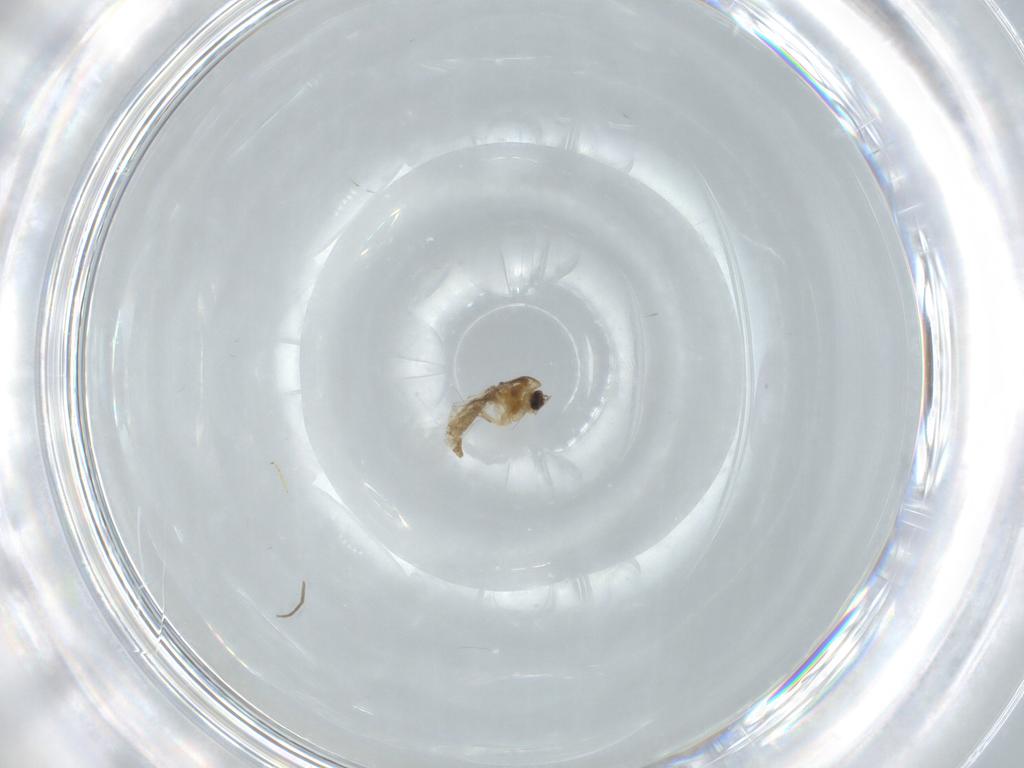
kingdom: Animalia
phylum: Arthropoda
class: Insecta
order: Diptera
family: Chironomidae
